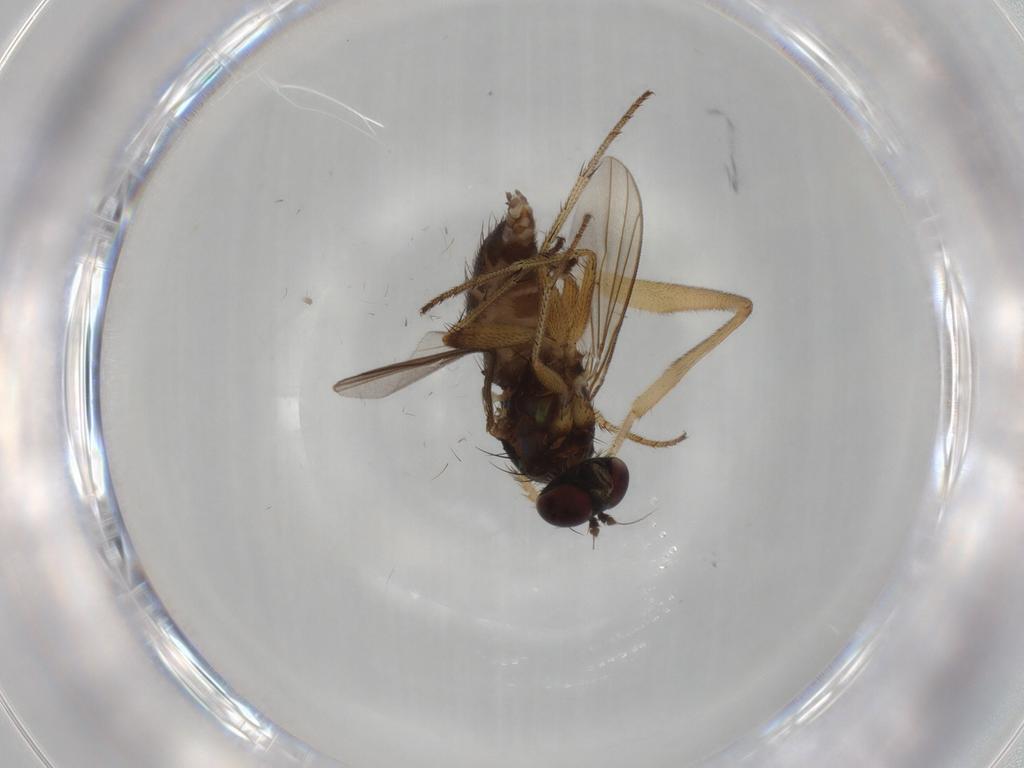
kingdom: Animalia
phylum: Arthropoda
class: Insecta
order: Diptera
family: Dolichopodidae
